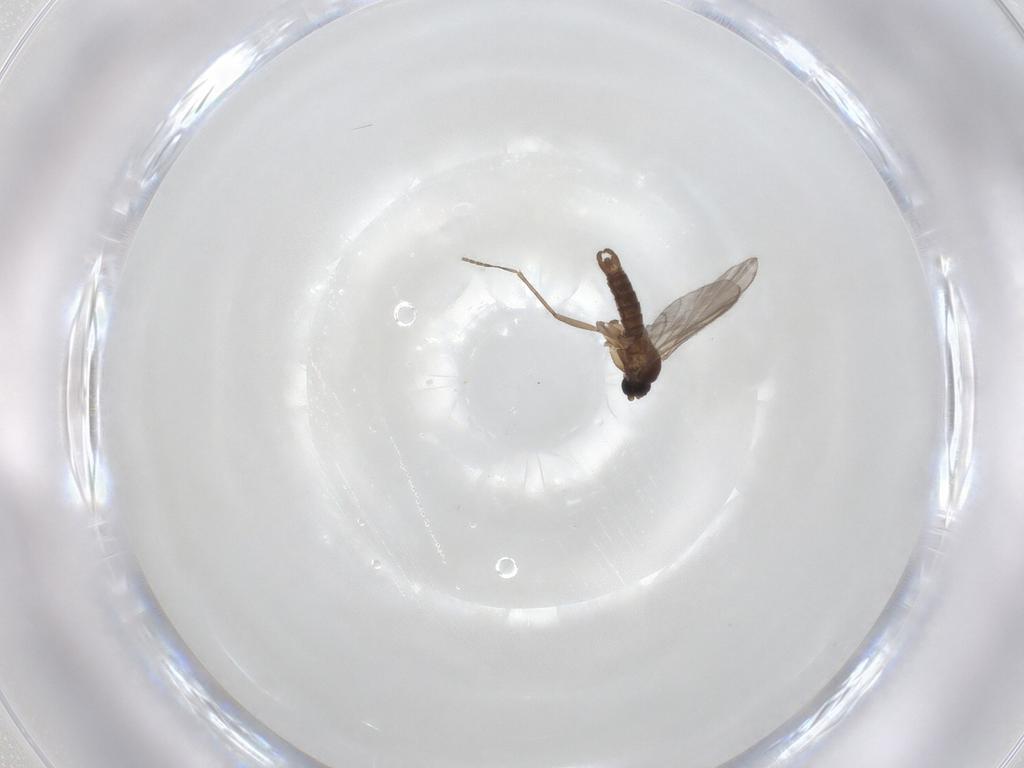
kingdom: Animalia
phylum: Arthropoda
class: Insecta
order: Diptera
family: Sciaridae
